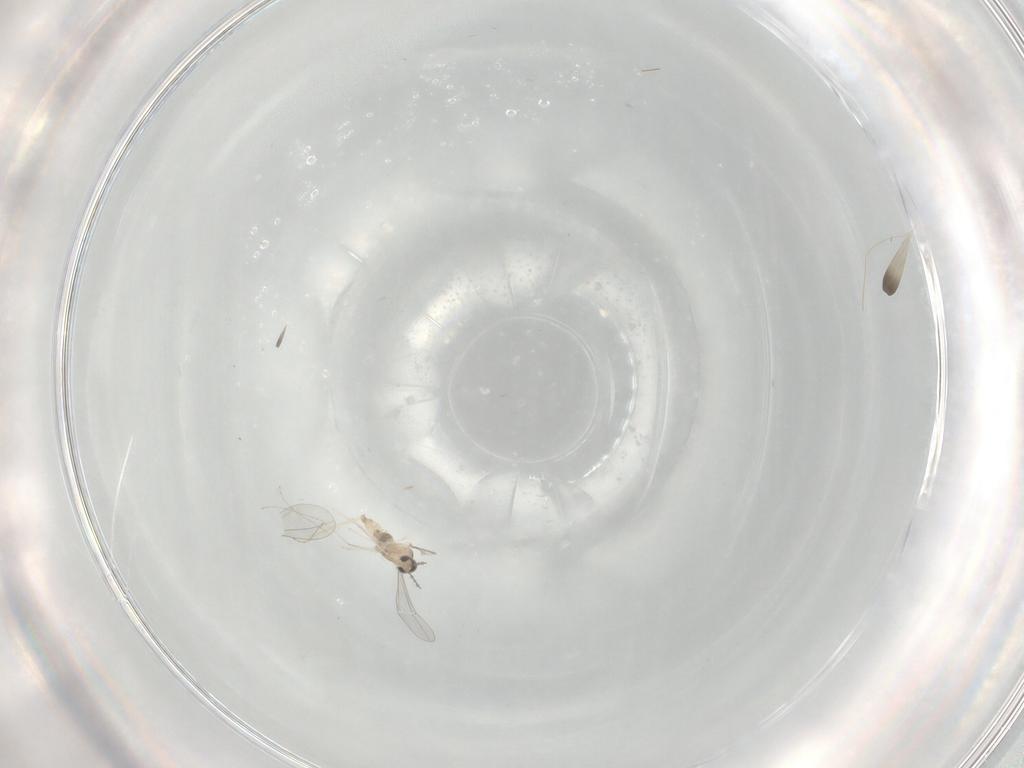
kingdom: Animalia
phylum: Arthropoda
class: Insecta
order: Diptera
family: Cecidomyiidae
